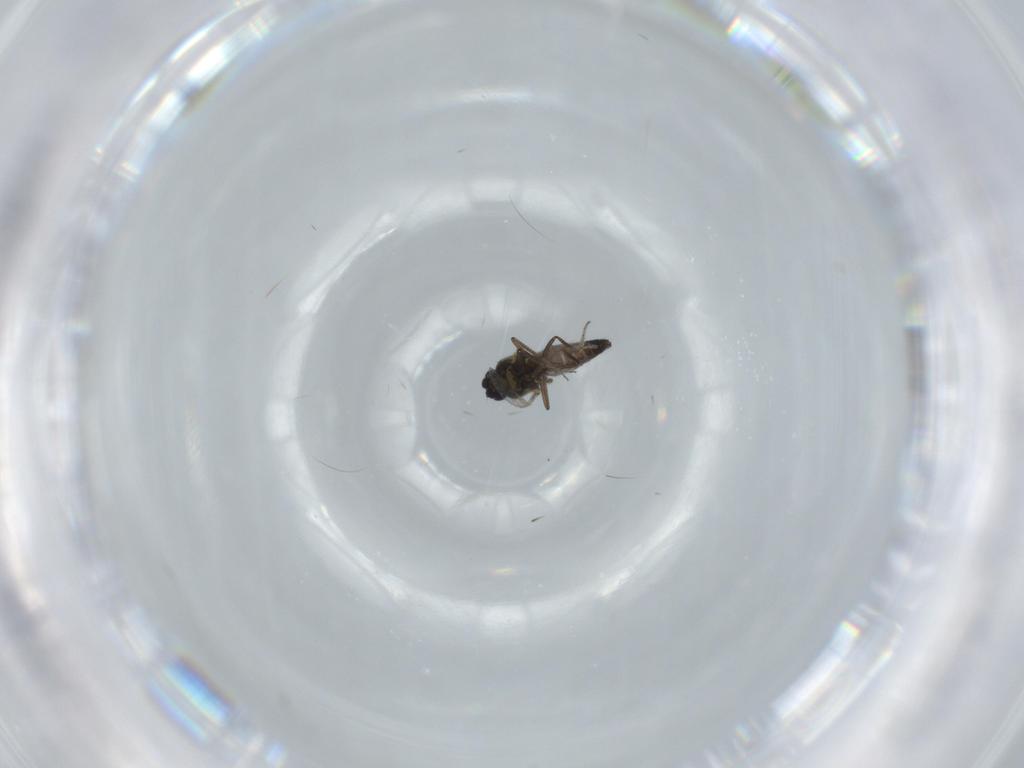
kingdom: Animalia
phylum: Arthropoda
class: Insecta
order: Diptera
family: Ceratopogonidae
